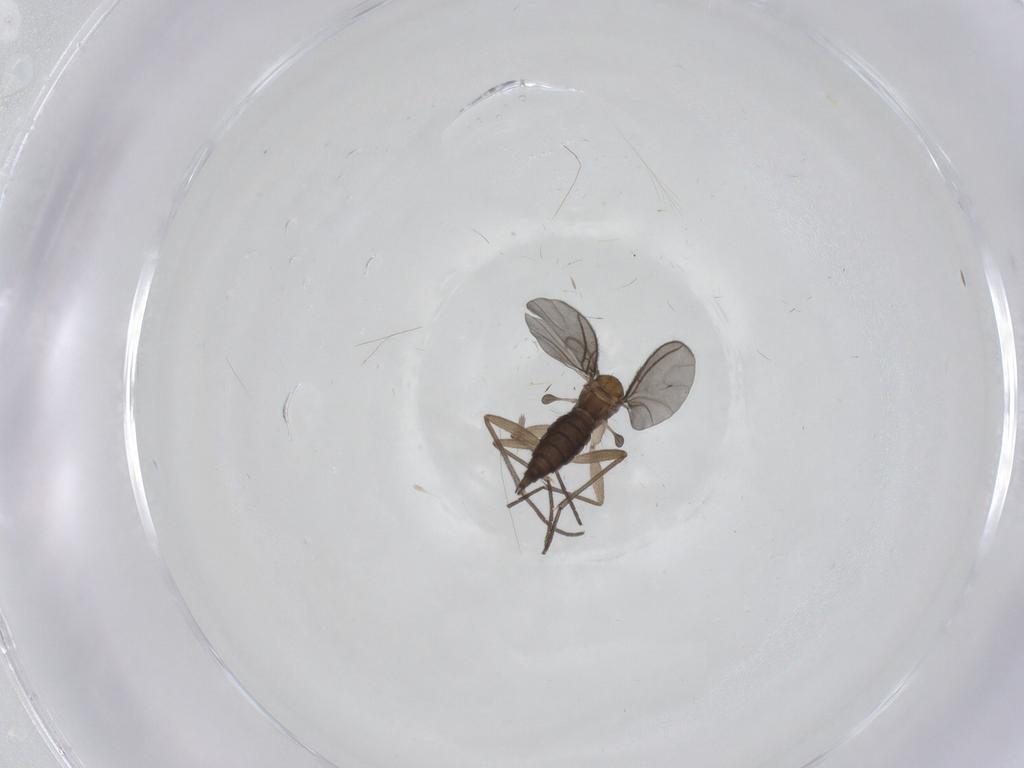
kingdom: Animalia
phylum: Arthropoda
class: Insecta
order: Diptera
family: Sciaridae
